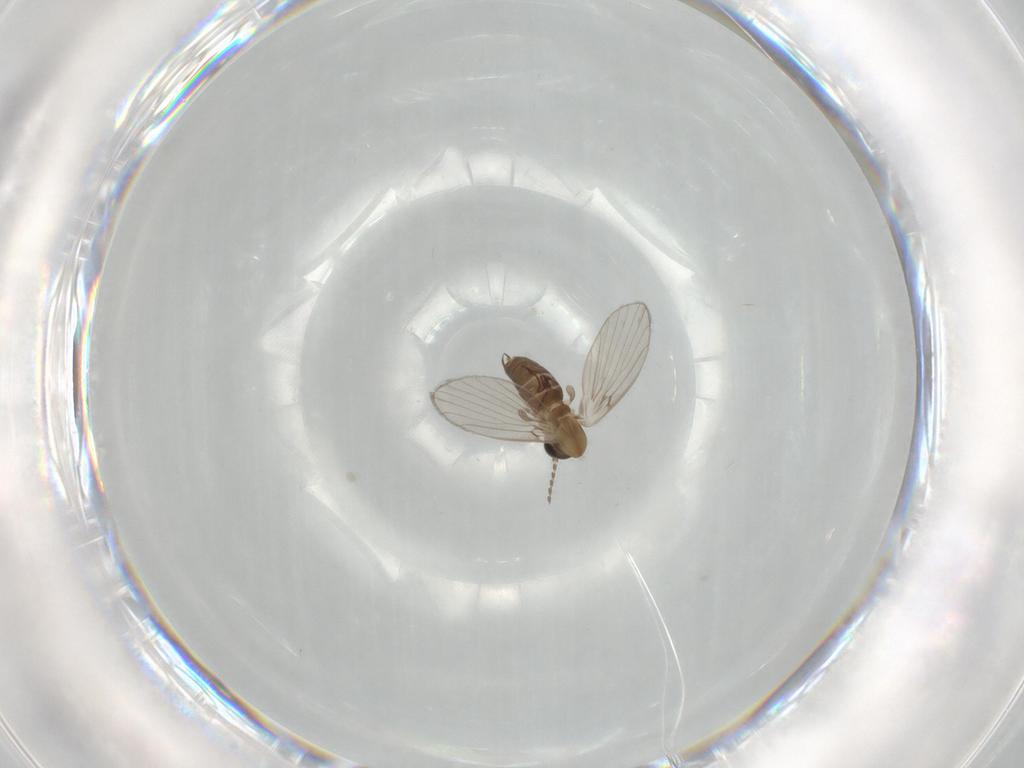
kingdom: Animalia
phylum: Arthropoda
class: Insecta
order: Diptera
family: Psychodidae
